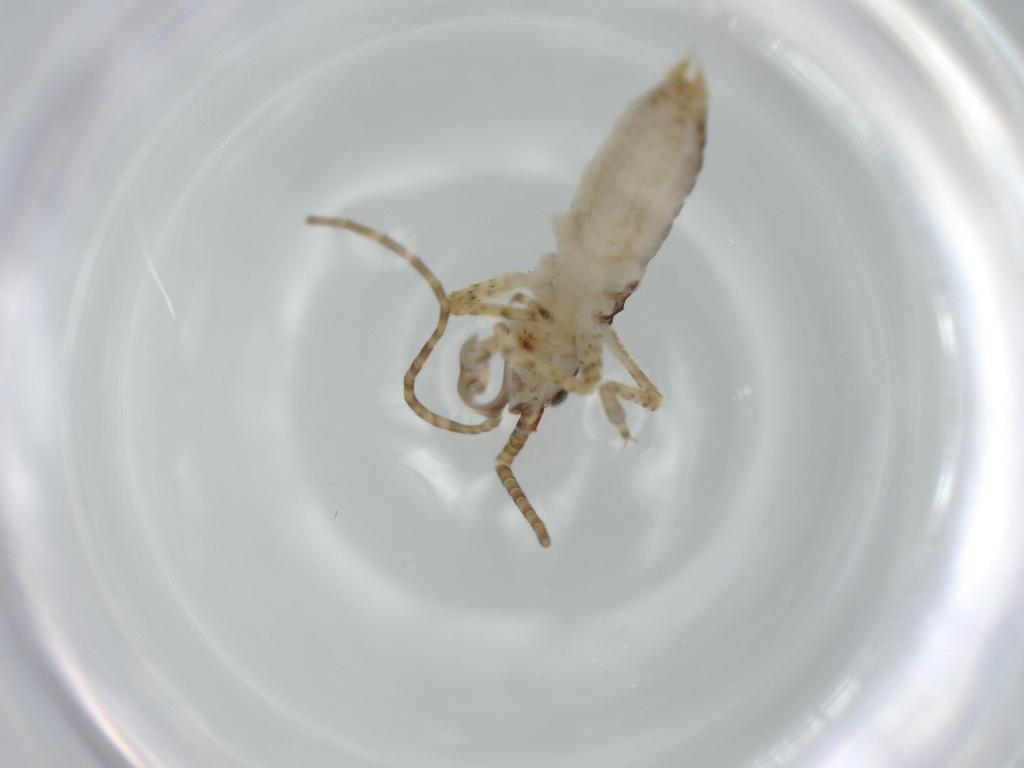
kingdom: Animalia
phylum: Arthropoda
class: Insecta
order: Orthoptera
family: Gryllidae
